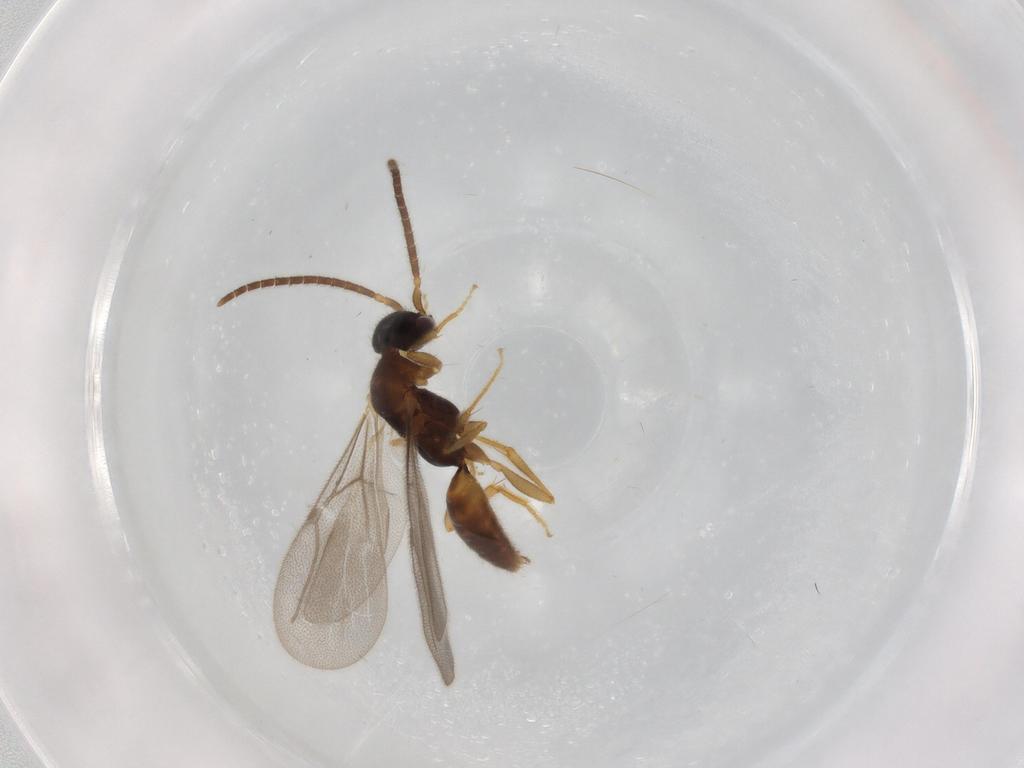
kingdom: Animalia
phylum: Arthropoda
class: Insecta
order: Hymenoptera
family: Bethylidae
